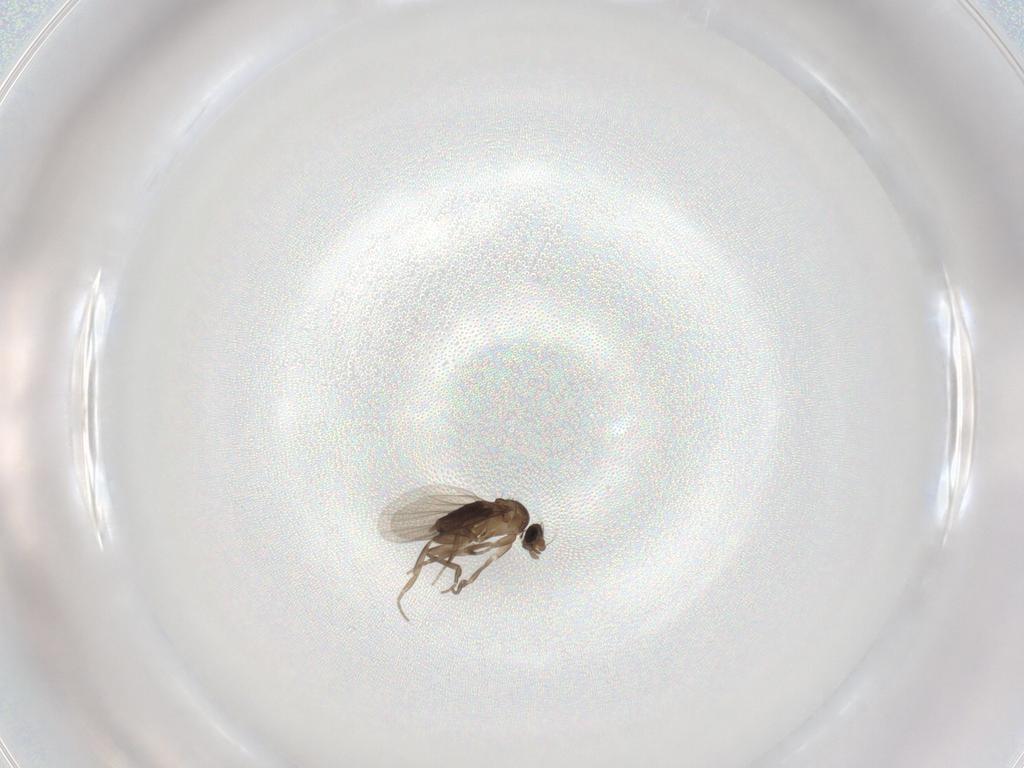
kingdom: Animalia
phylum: Arthropoda
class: Insecta
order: Diptera
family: Phoridae
